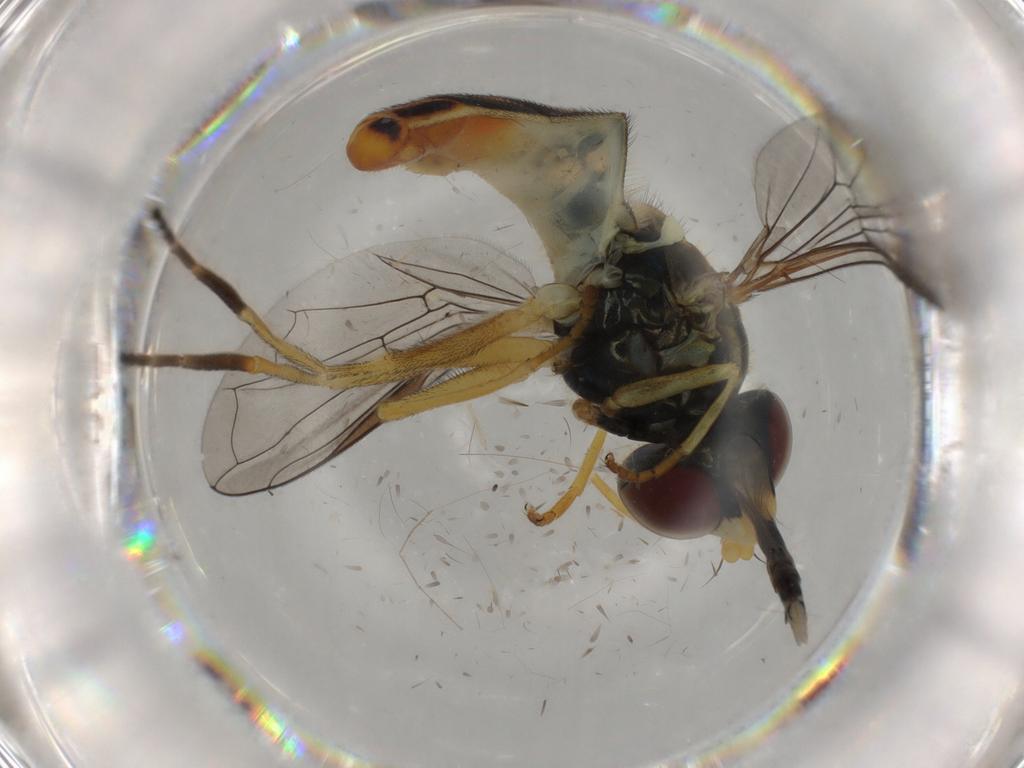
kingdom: Animalia
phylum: Arthropoda
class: Insecta
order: Diptera
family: Syrphidae
